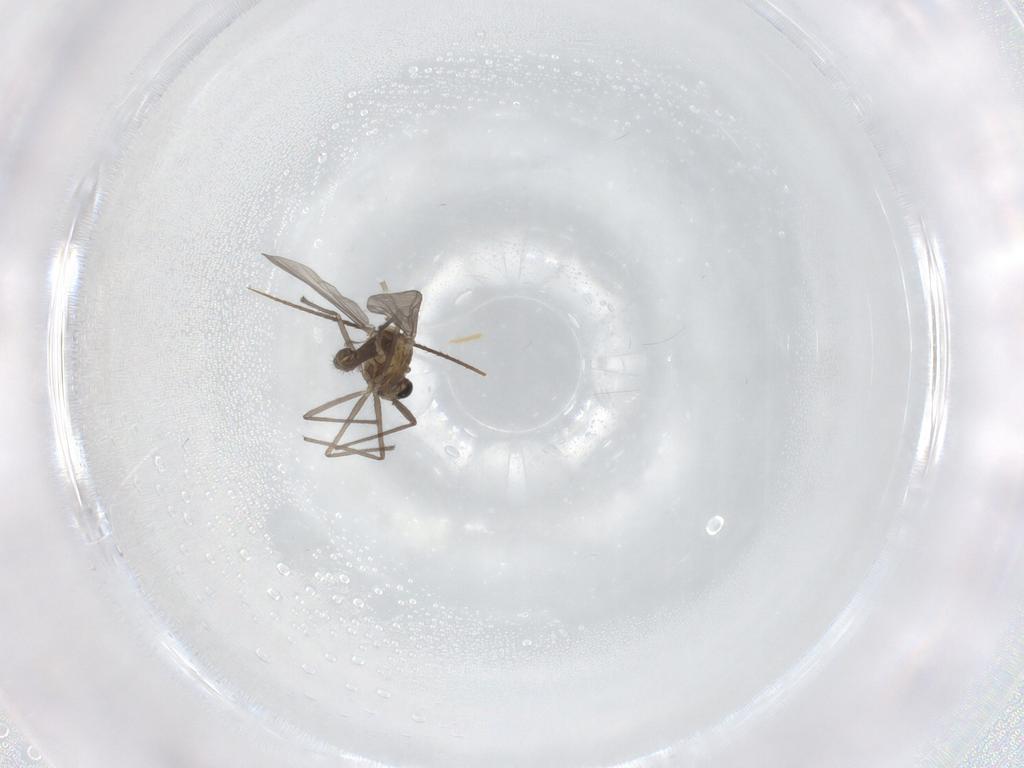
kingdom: Animalia
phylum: Arthropoda
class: Insecta
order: Diptera
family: Chironomidae
